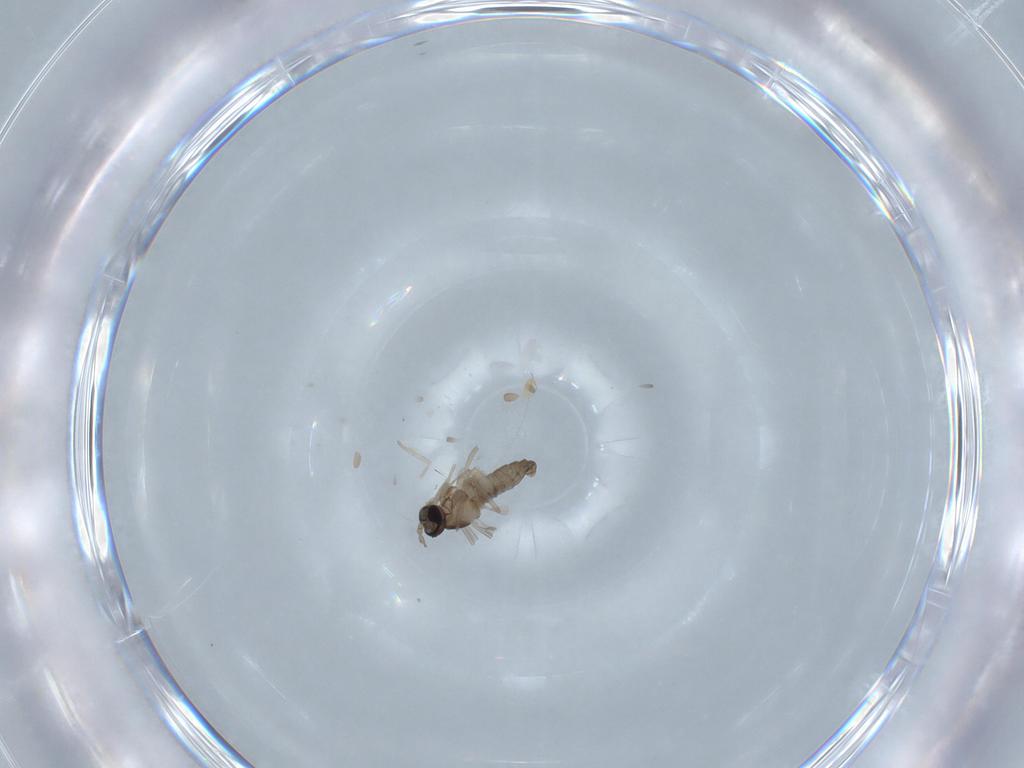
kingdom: Animalia
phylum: Arthropoda
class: Insecta
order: Diptera
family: Cecidomyiidae
